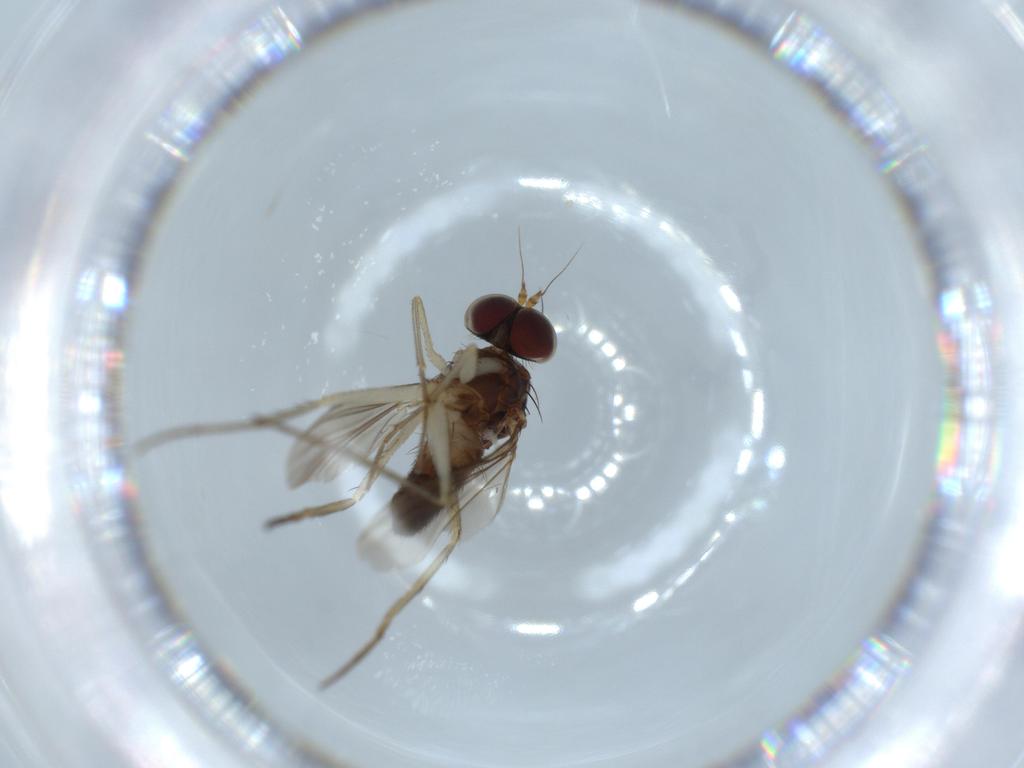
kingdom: Animalia
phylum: Arthropoda
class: Insecta
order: Diptera
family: Dolichopodidae
